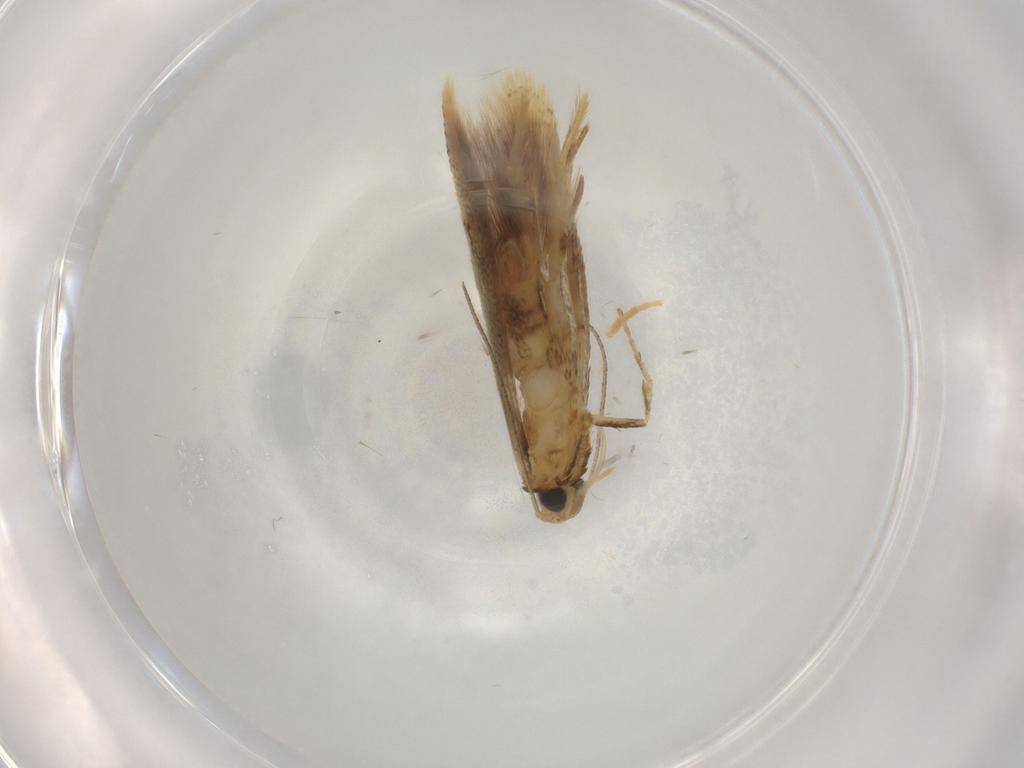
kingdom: Animalia
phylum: Arthropoda
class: Insecta
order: Lepidoptera
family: Tischeriidae
